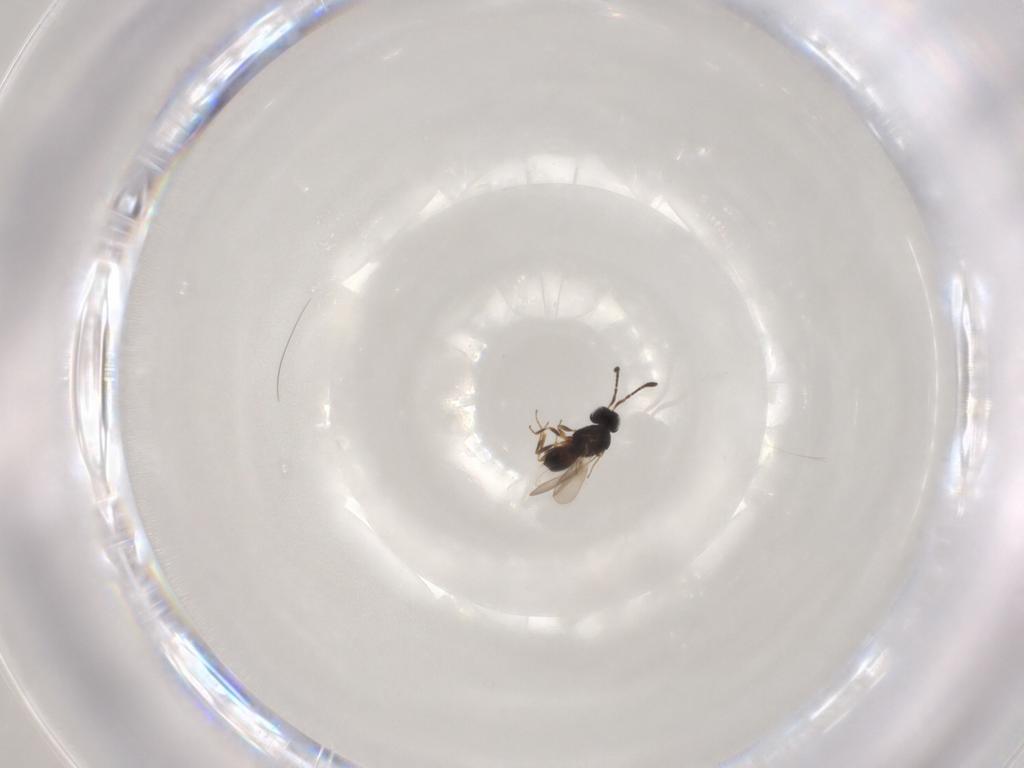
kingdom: Animalia
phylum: Arthropoda
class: Insecta
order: Hymenoptera
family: Scelionidae
